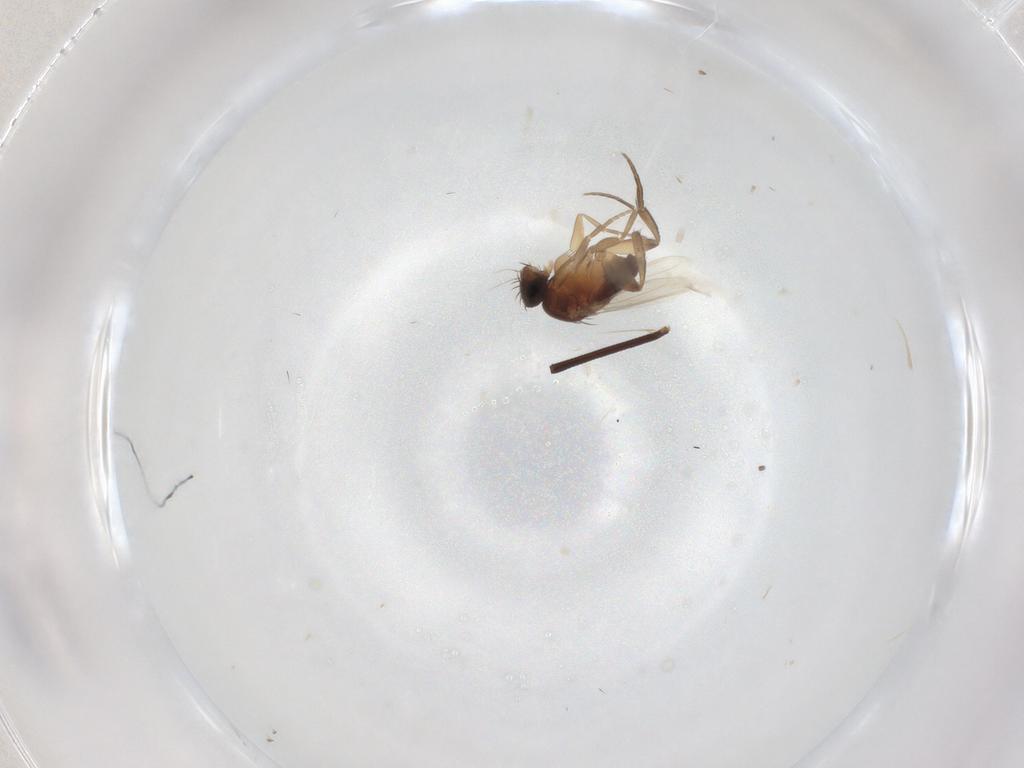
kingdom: Animalia
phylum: Arthropoda
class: Insecta
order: Diptera
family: Phoridae
